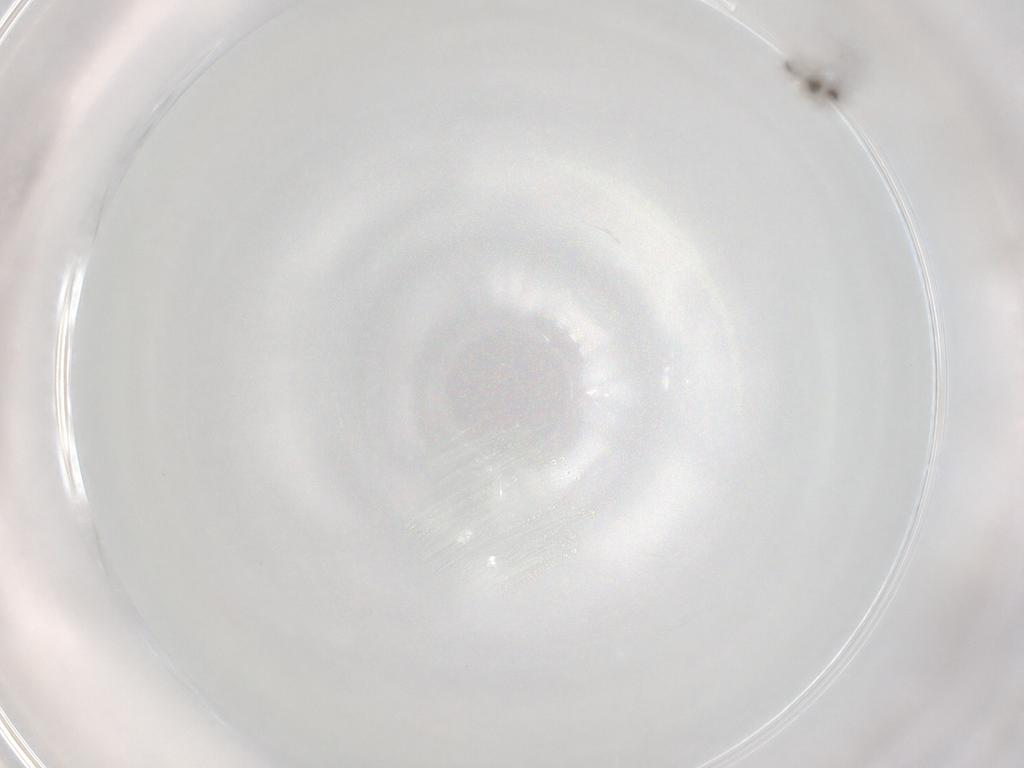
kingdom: Animalia
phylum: Arthropoda
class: Insecta
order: Diptera
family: Cecidomyiidae
